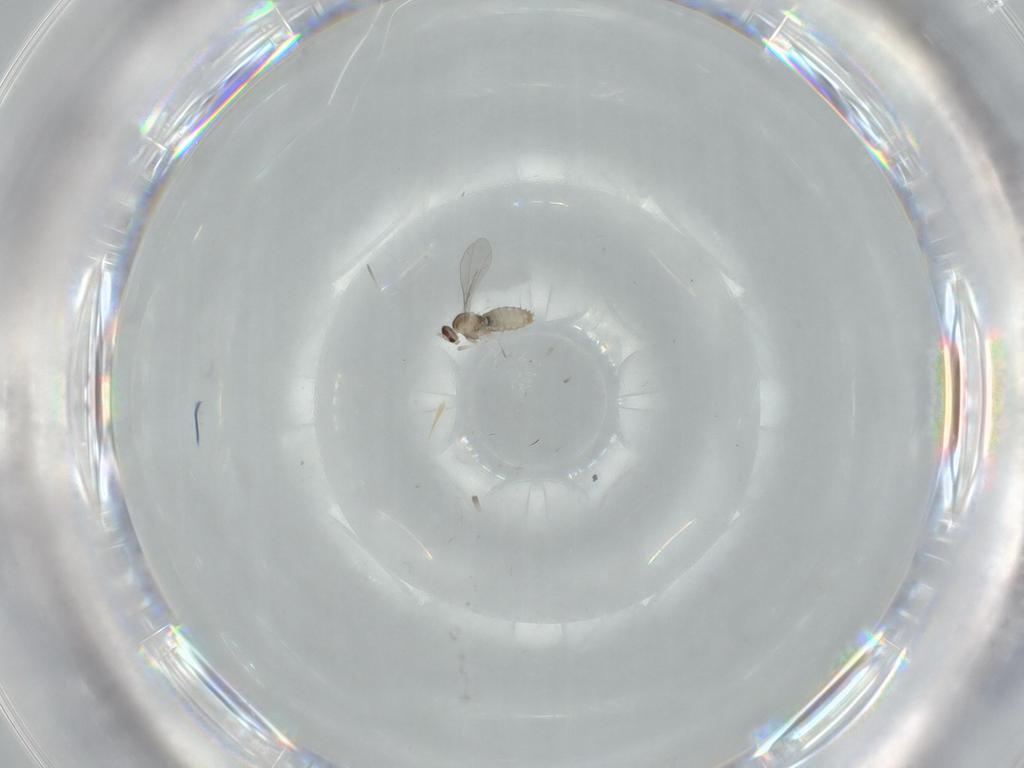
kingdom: Animalia
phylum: Arthropoda
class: Insecta
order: Diptera
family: Cecidomyiidae
